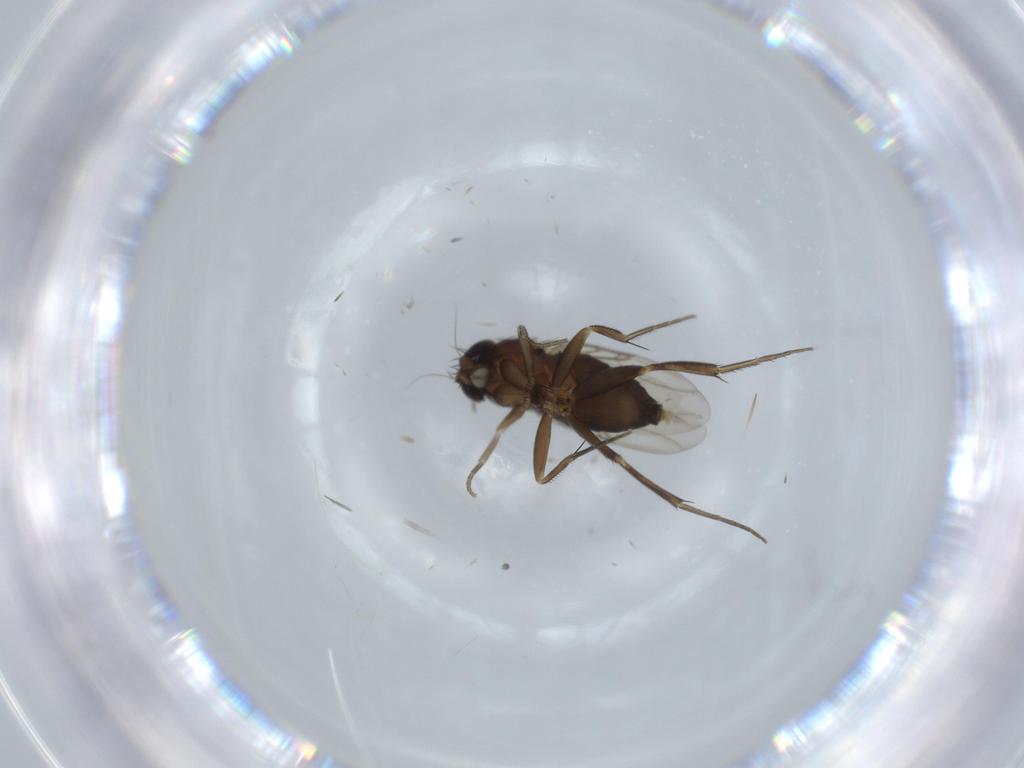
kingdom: Animalia
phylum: Arthropoda
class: Insecta
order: Diptera
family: Phoridae
